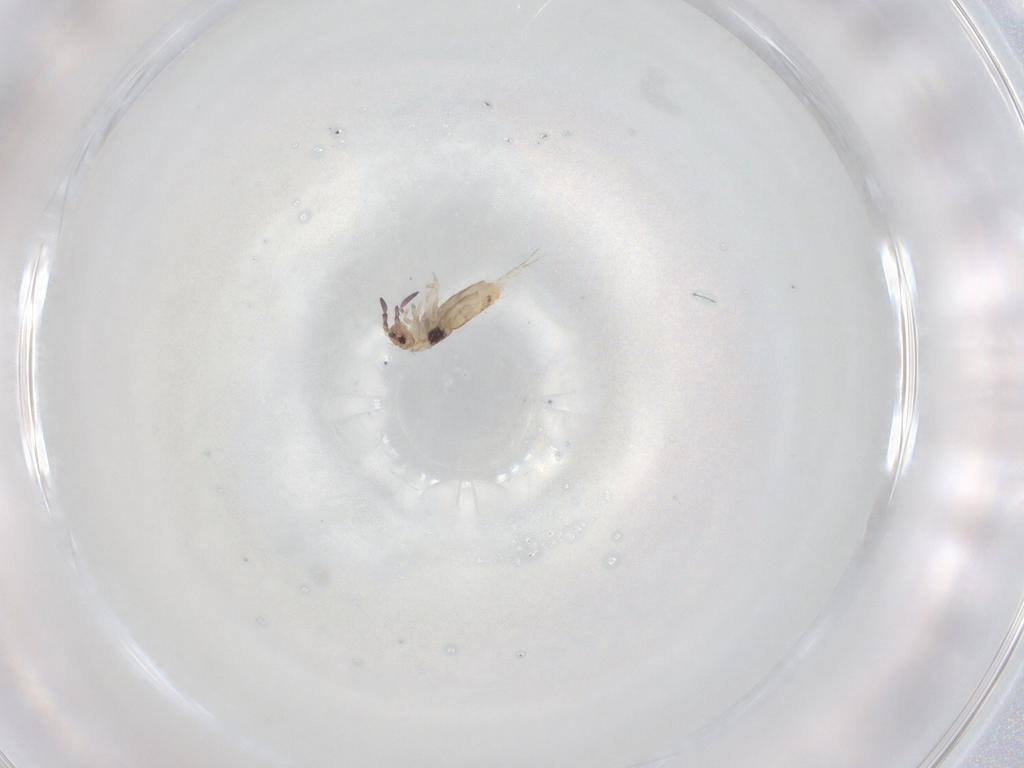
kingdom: Animalia
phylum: Arthropoda
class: Collembola
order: Entomobryomorpha
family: Entomobryidae
